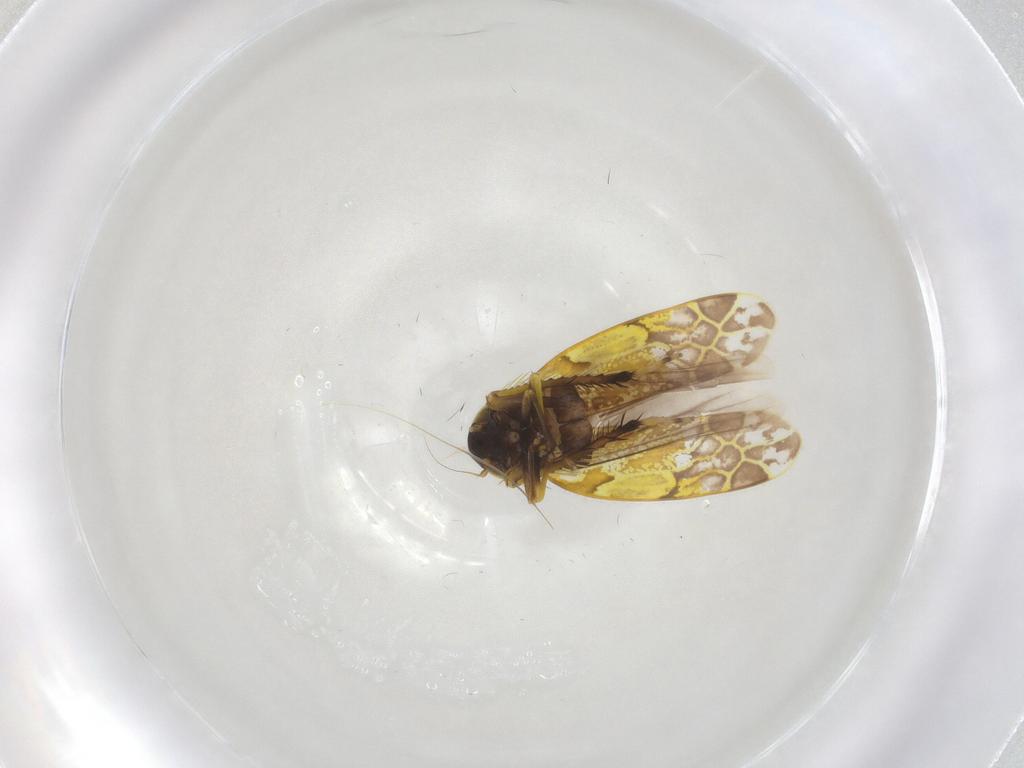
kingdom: Animalia
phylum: Arthropoda
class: Insecta
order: Hemiptera
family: Cicadellidae
